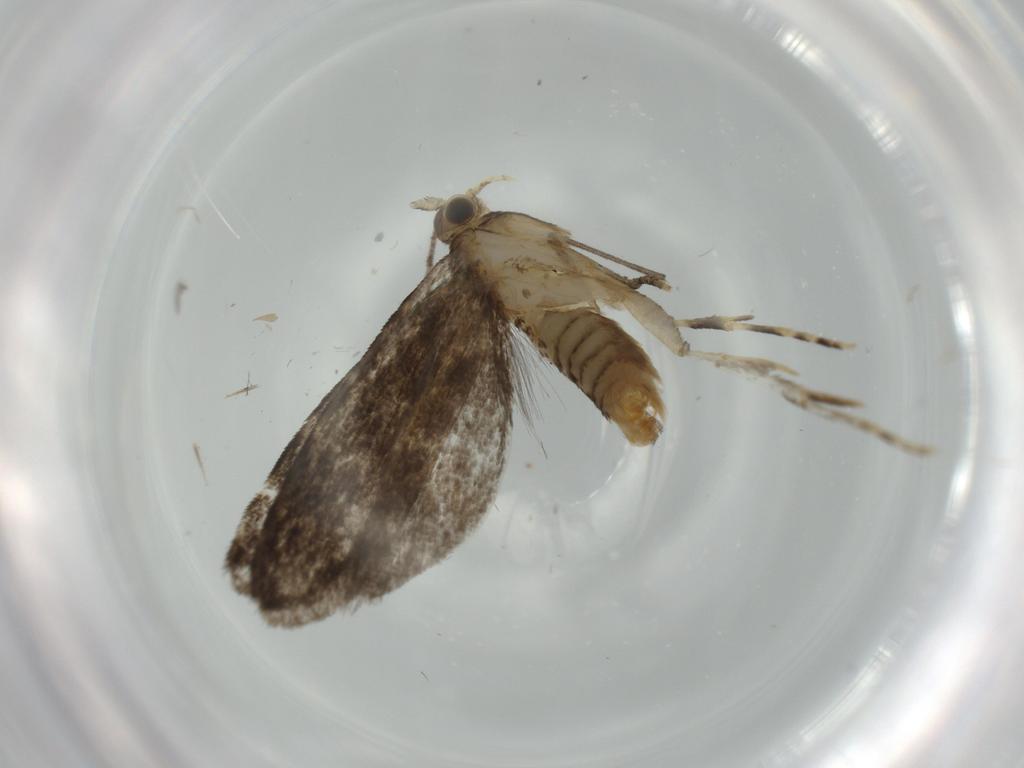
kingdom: Animalia
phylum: Arthropoda
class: Insecta
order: Lepidoptera
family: Tineidae
